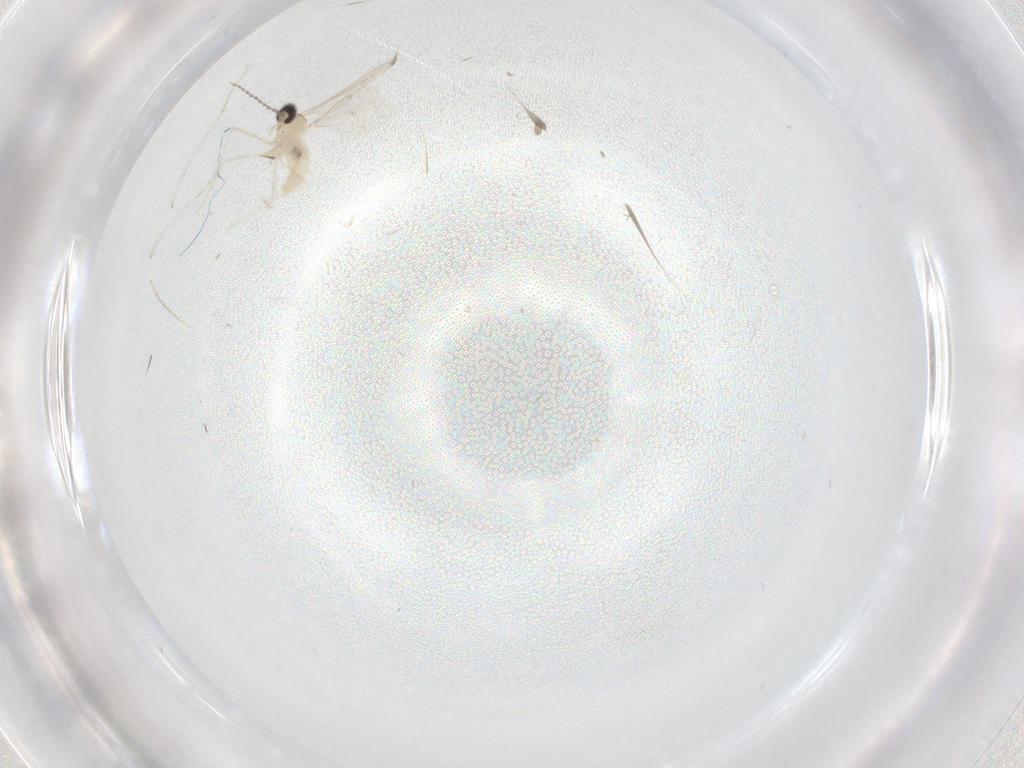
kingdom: Animalia
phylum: Arthropoda
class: Insecta
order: Diptera
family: Cecidomyiidae
